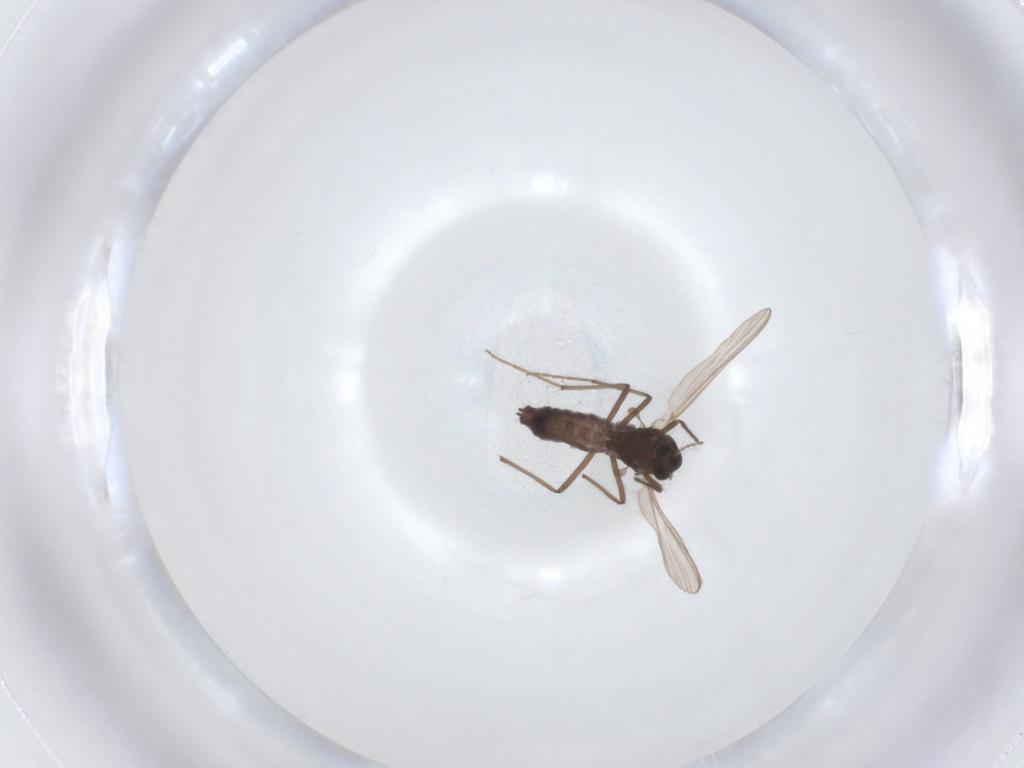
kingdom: Animalia
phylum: Arthropoda
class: Insecta
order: Diptera
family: Chironomidae
